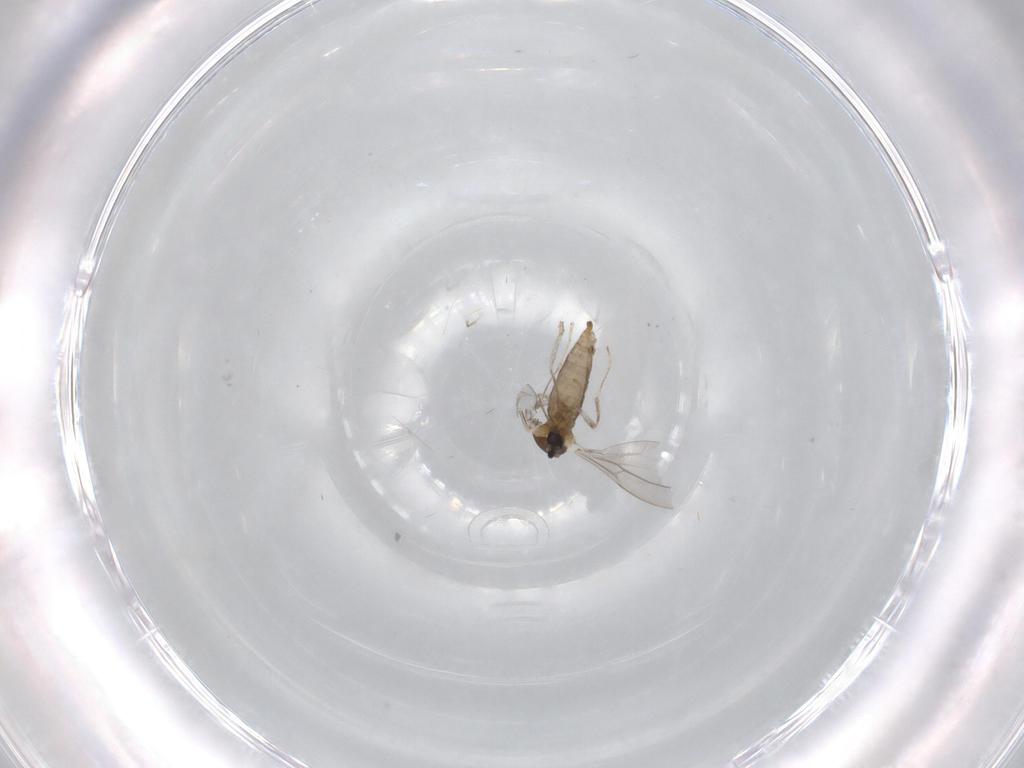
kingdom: Animalia
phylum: Arthropoda
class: Insecta
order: Diptera
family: Cecidomyiidae
